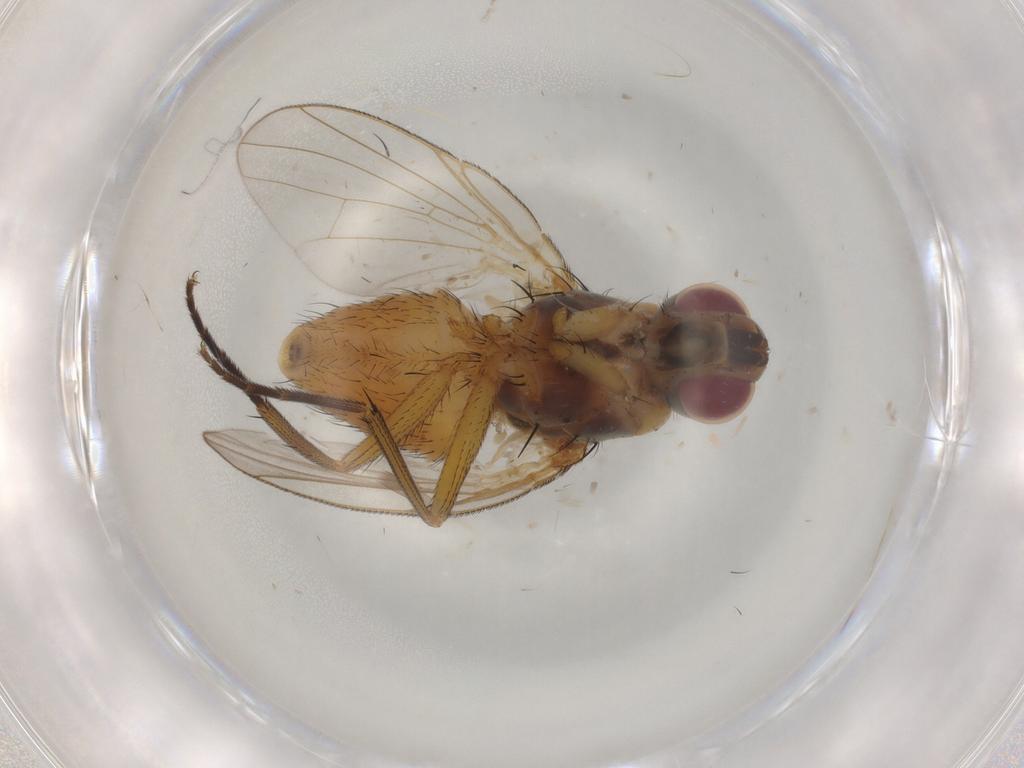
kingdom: Animalia
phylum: Arthropoda
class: Insecta
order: Diptera
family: Muscidae
